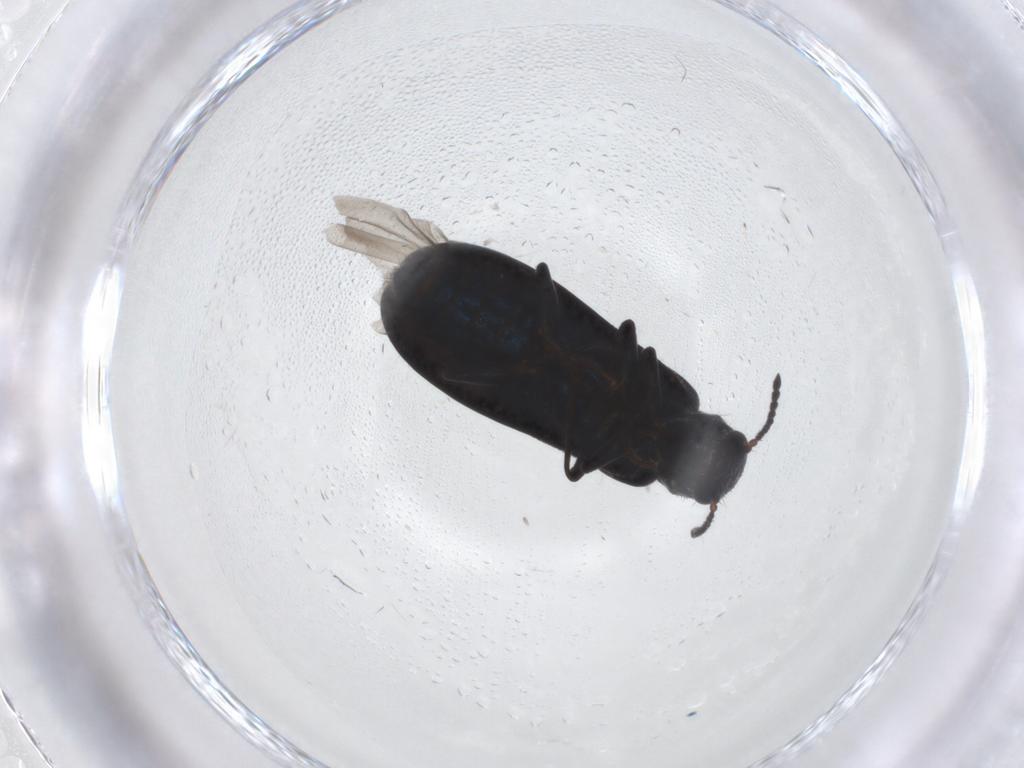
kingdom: Animalia
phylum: Arthropoda
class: Insecta
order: Coleoptera
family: Melyridae
